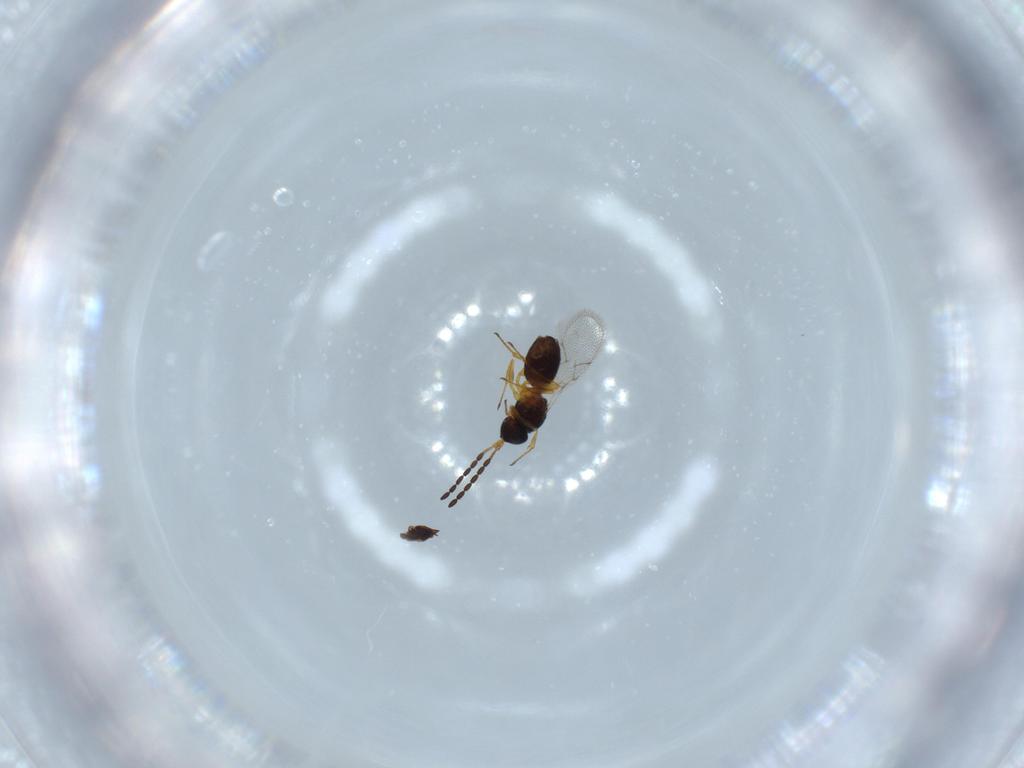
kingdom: Animalia
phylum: Arthropoda
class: Insecta
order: Hymenoptera
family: Figitidae
